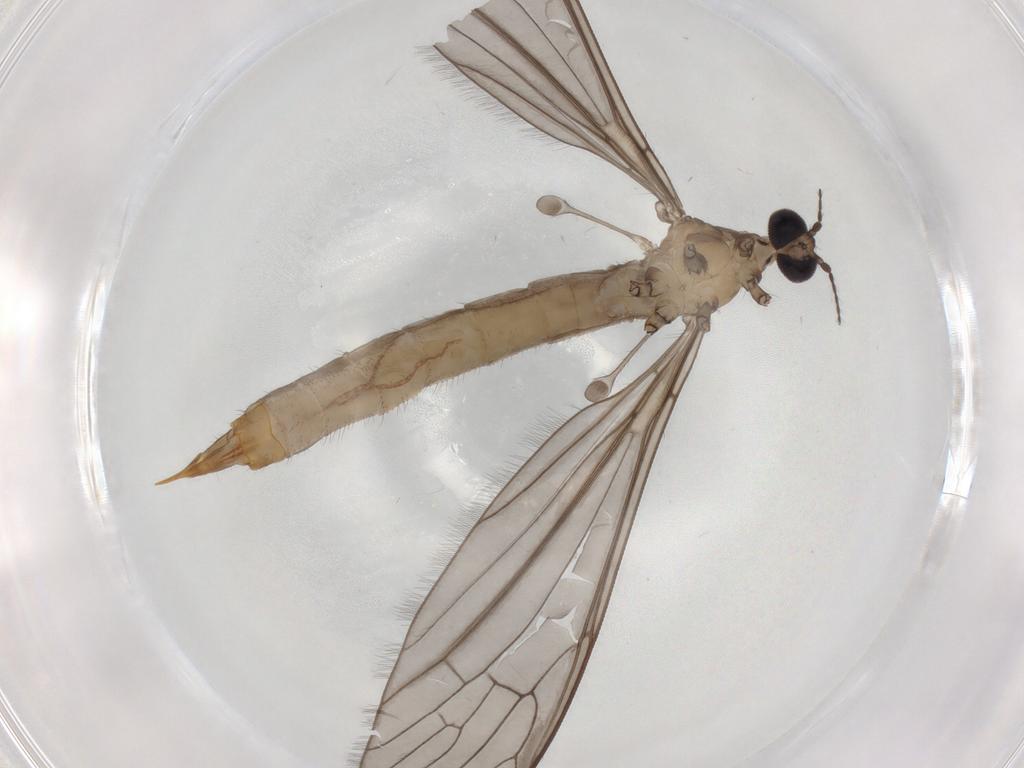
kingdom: Animalia
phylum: Arthropoda
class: Insecta
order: Diptera
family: Limoniidae
